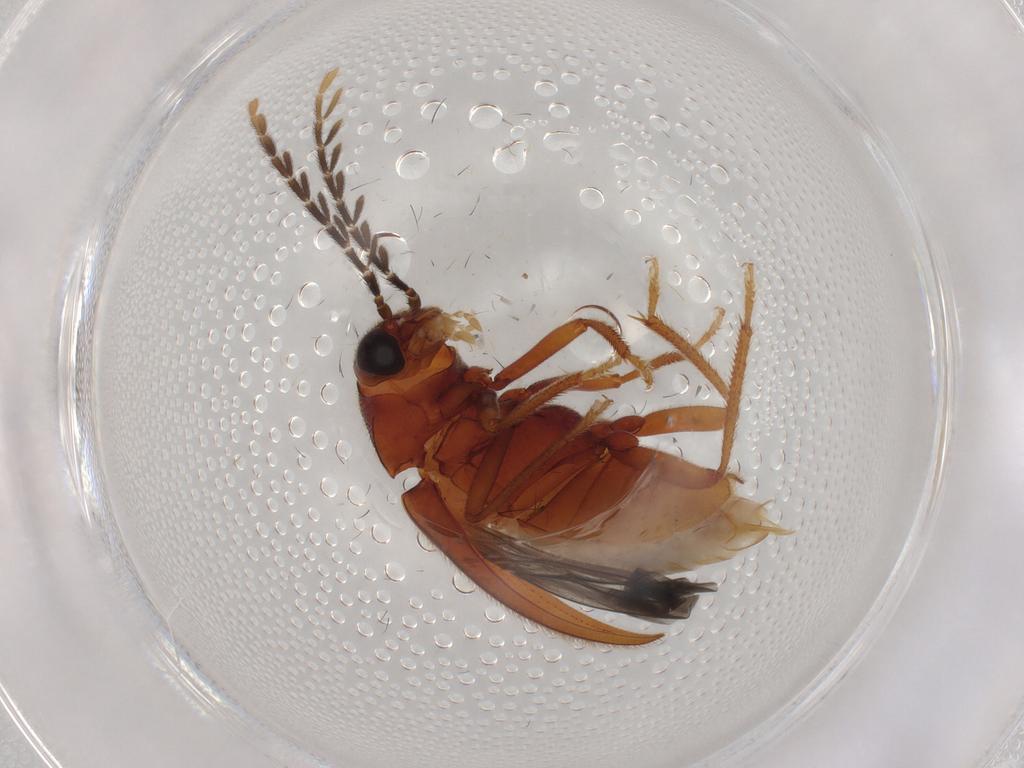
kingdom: Animalia
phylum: Arthropoda
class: Insecta
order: Coleoptera
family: Ptilodactylidae
